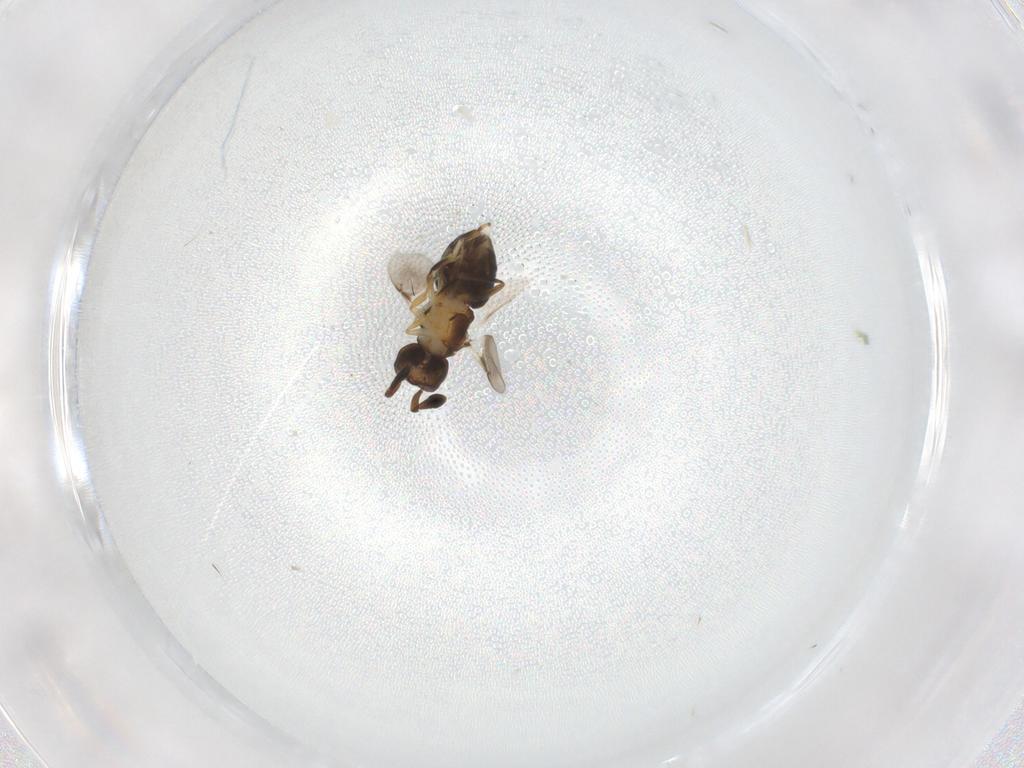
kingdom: Animalia
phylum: Arthropoda
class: Insecta
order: Hymenoptera
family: Encyrtidae
